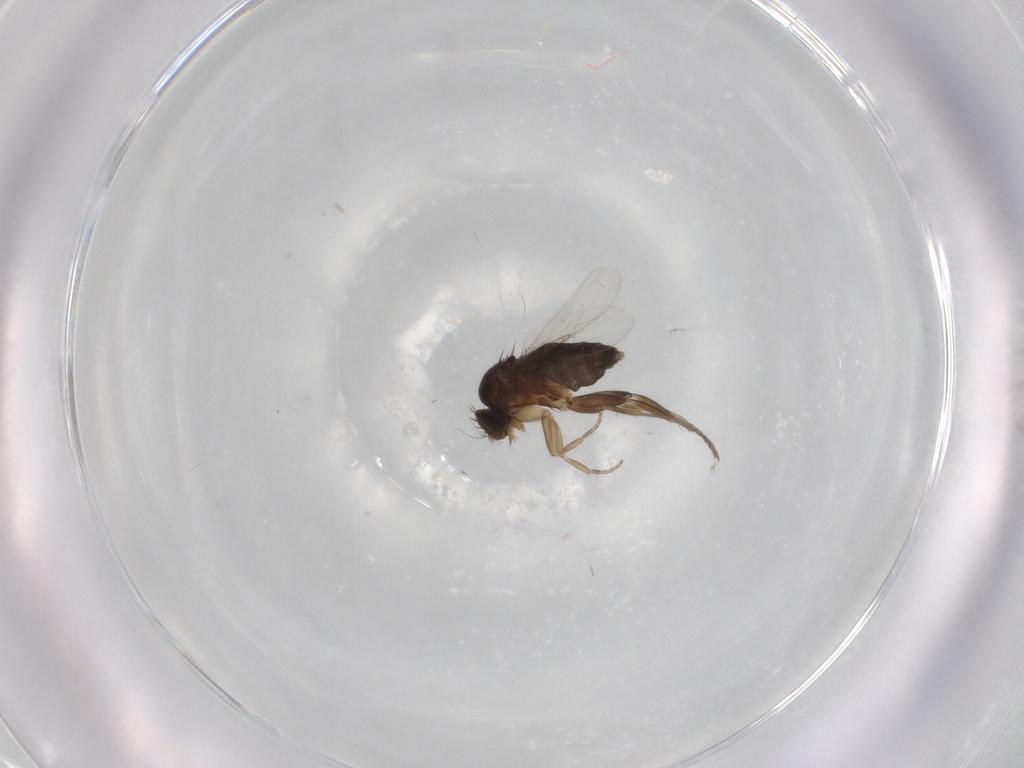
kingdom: Animalia
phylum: Arthropoda
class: Insecta
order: Diptera
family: Phoridae
